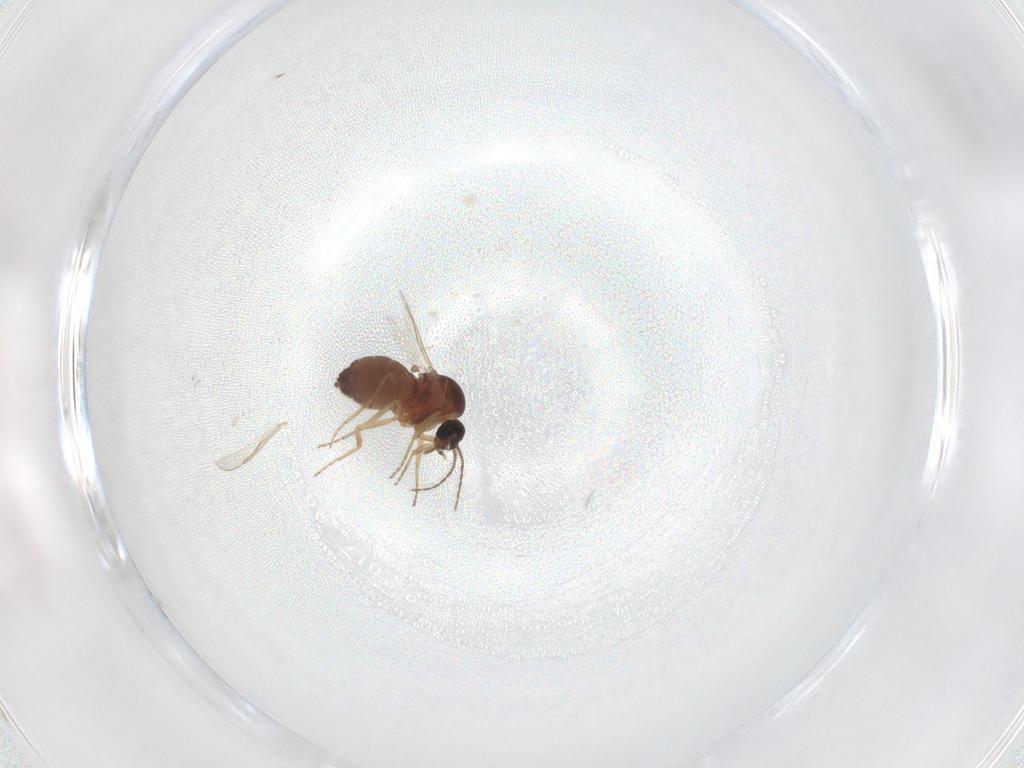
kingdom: Animalia
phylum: Arthropoda
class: Insecta
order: Diptera
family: Ceratopogonidae
